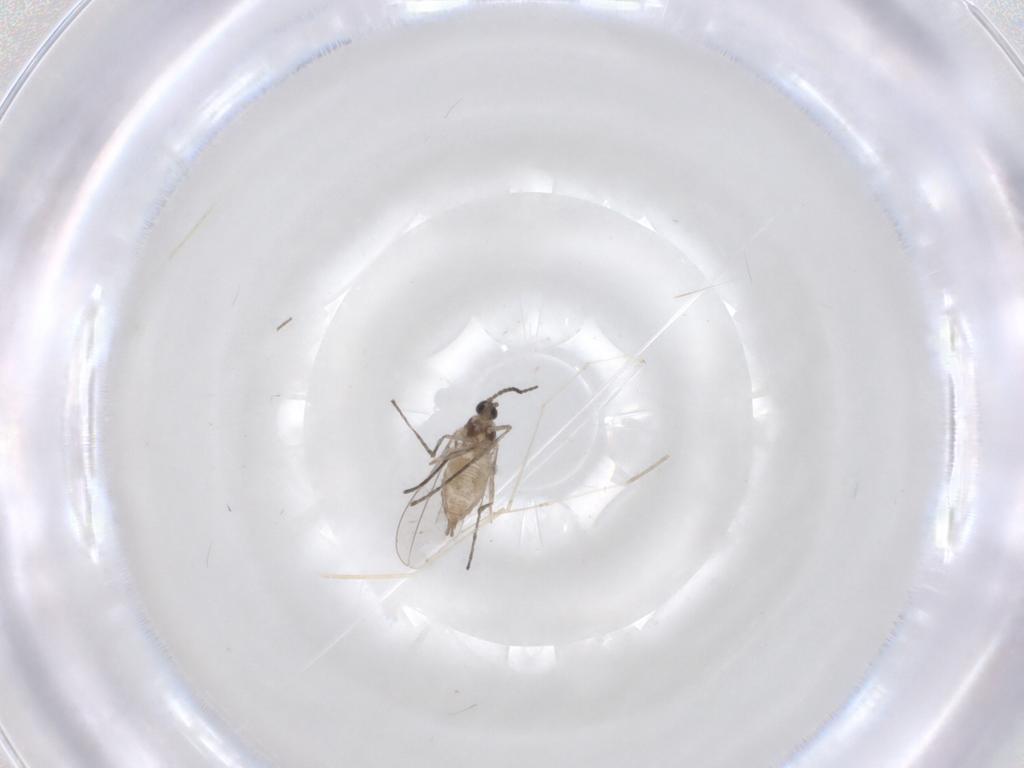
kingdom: Animalia
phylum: Arthropoda
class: Insecta
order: Diptera
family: Cecidomyiidae
